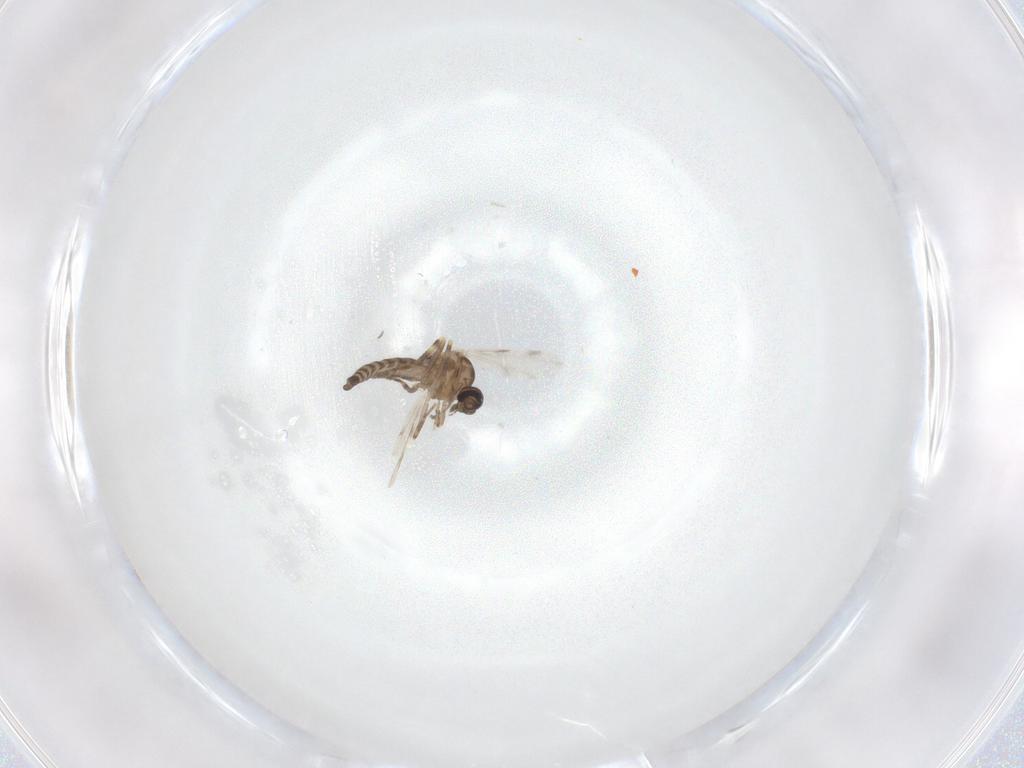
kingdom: Animalia
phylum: Arthropoda
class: Insecta
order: Diptera
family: Ceratopogonidae
